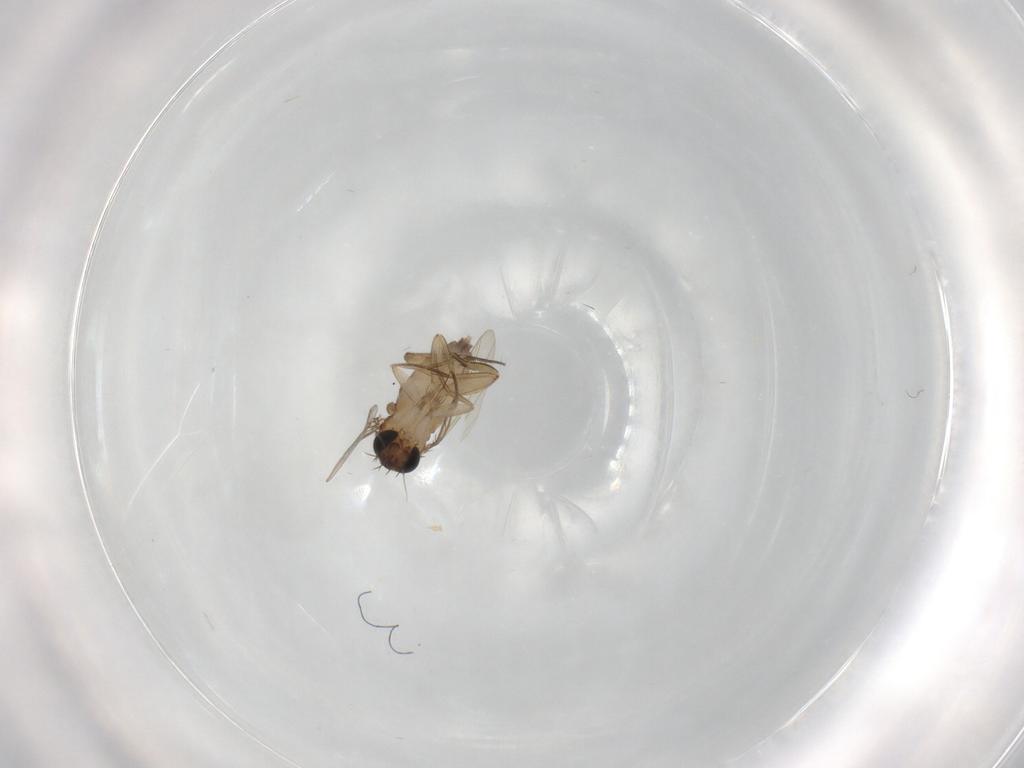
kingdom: Animalia
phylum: Arthropoda
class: Insecta
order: Diptera
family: Phoridae
